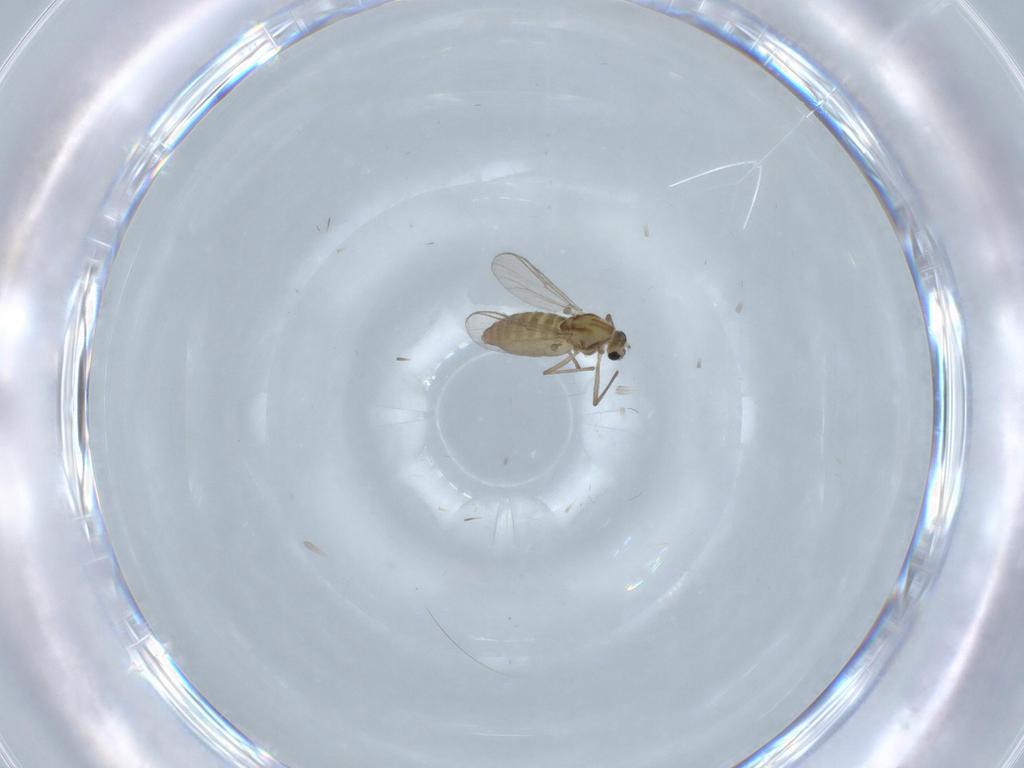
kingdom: Animalia
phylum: Arthropoda
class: Insecta
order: Diptera
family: Chironomidae
